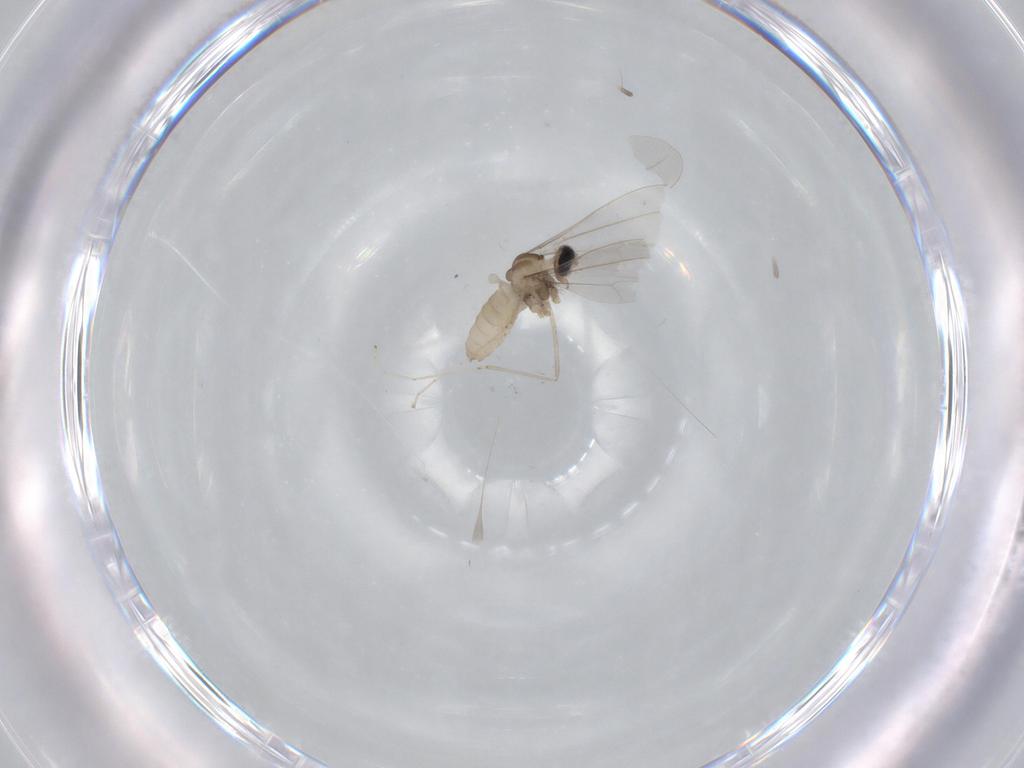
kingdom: Animalia
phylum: Arthropoda
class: Insecta
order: Diptera
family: Cecidomyiidae
